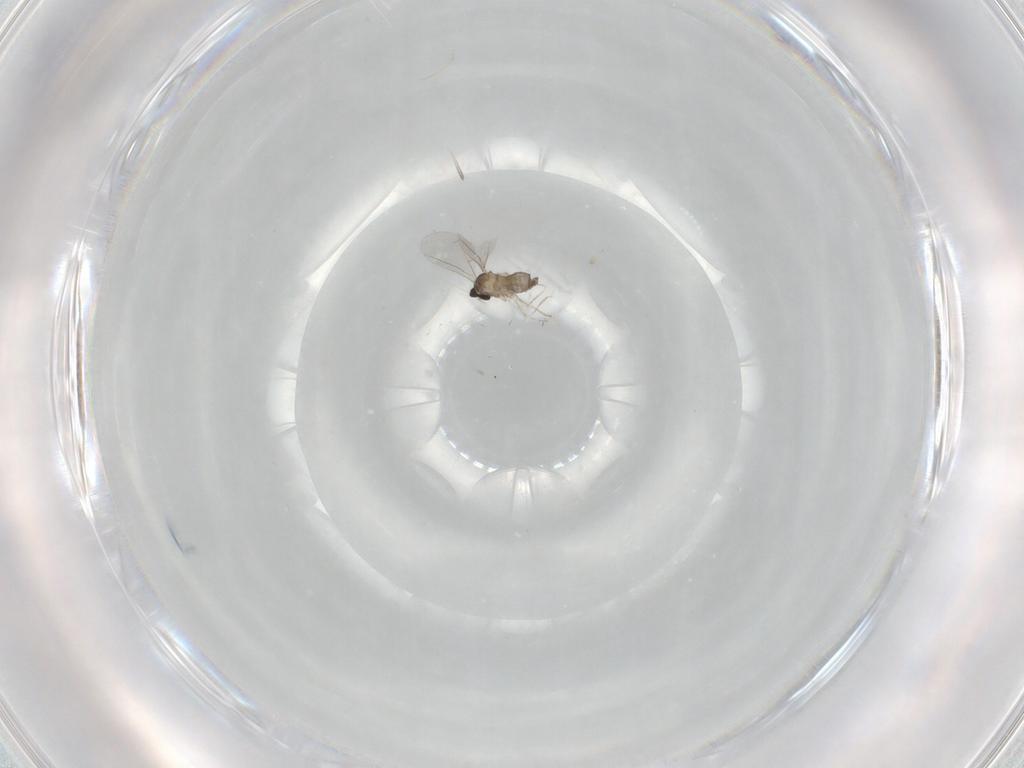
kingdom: Animalia
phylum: Arthropoda
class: Insecta
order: Diptera
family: Cecidomyiidae
